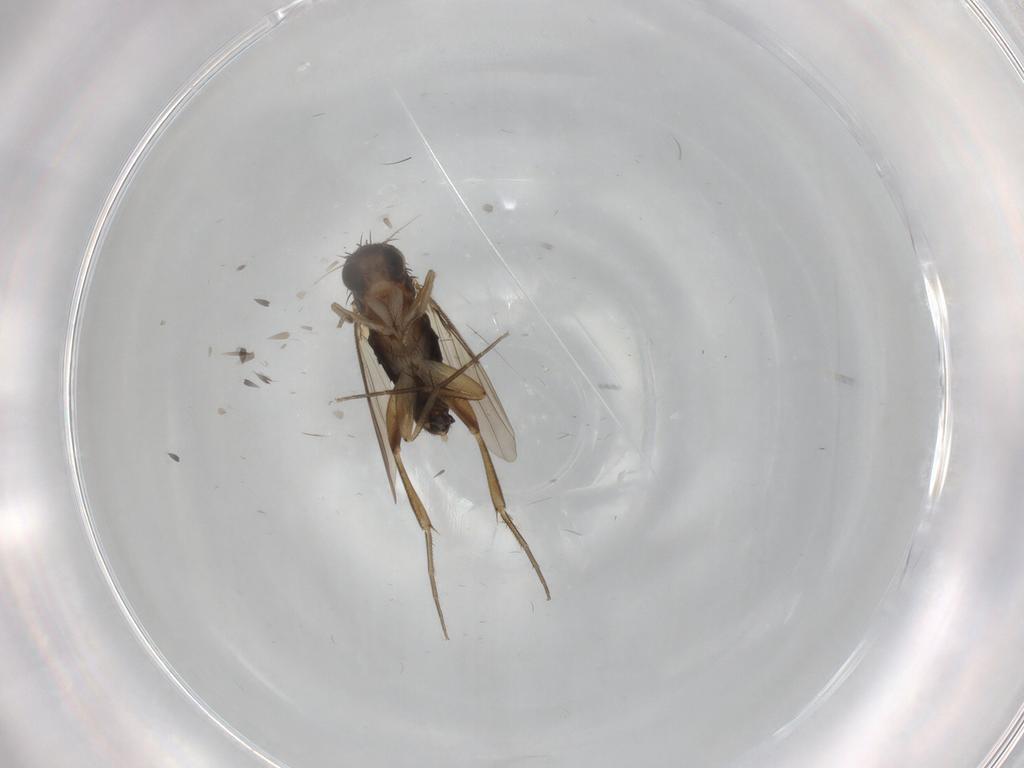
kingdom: Animalia
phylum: Arthropoda
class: Insecta
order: Diptera
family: Phoridae
